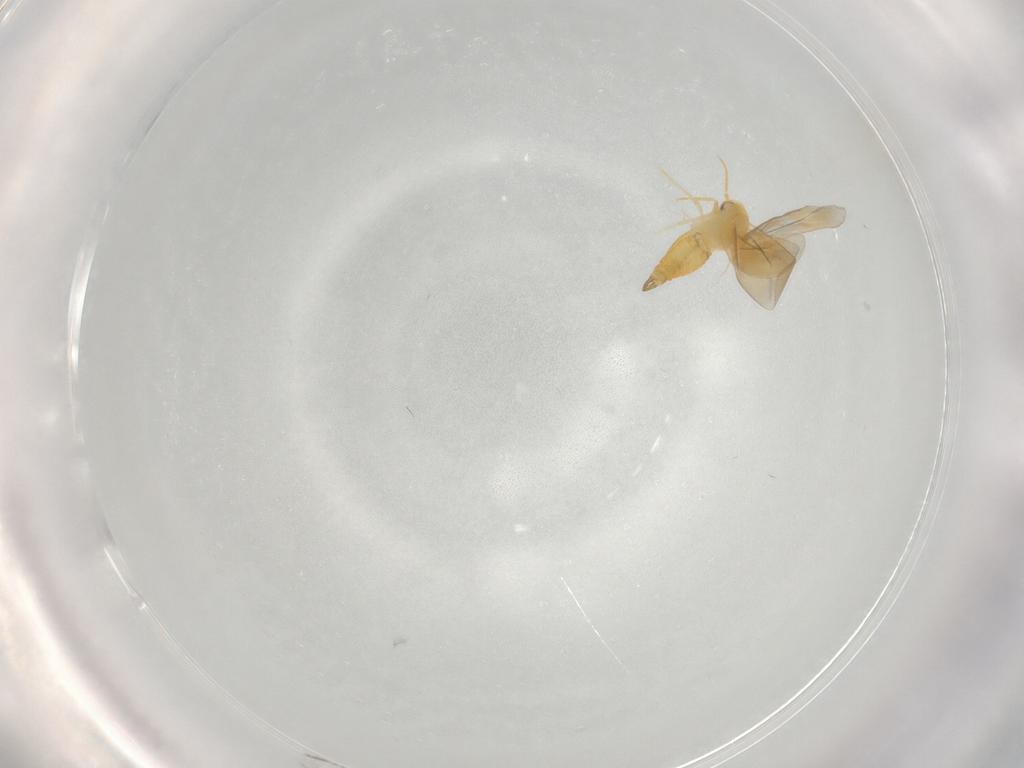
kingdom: Animalia
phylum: Arthropoda
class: Insecta
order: Hemiptera
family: Aleyrodidae
